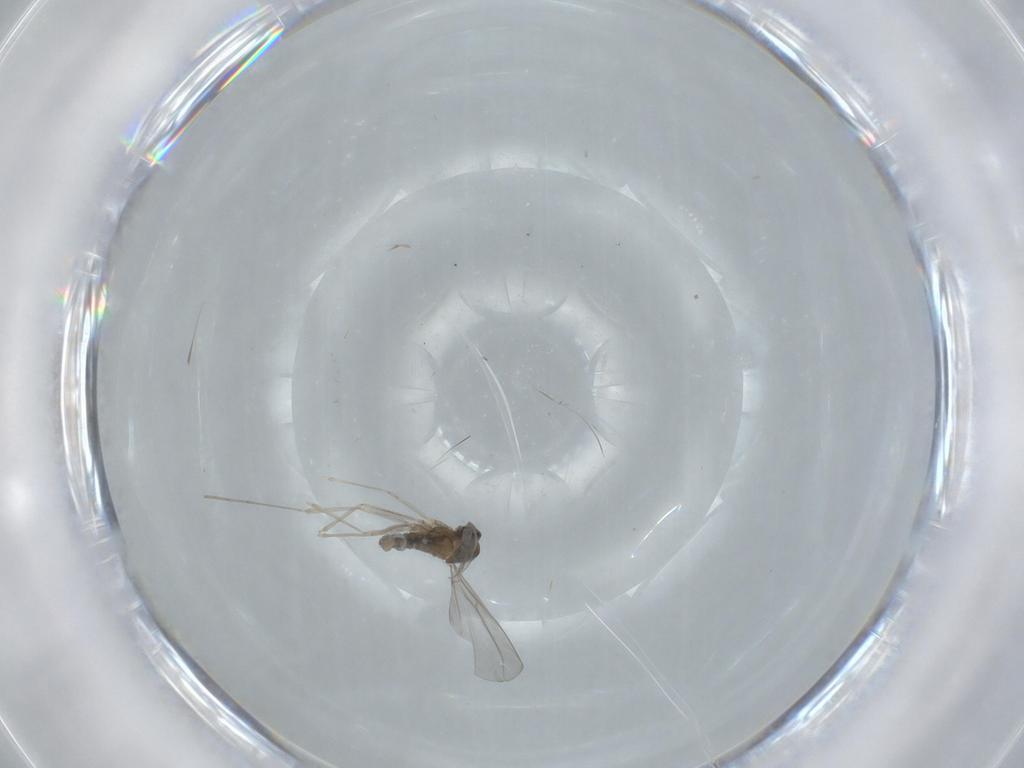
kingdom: Animalia
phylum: Arthropoda
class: Insecta
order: Diptera
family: Cecidomyiidae
